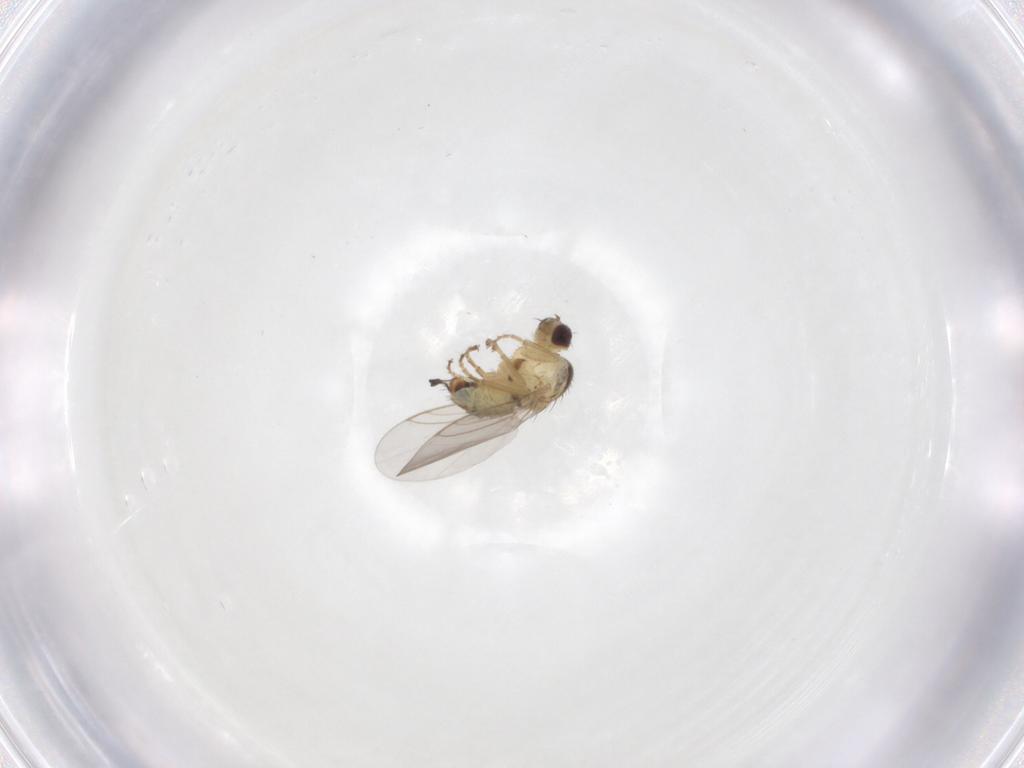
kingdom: Animalia
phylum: Arthropoda
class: Insecta
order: Diptera
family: Agromyzidae
